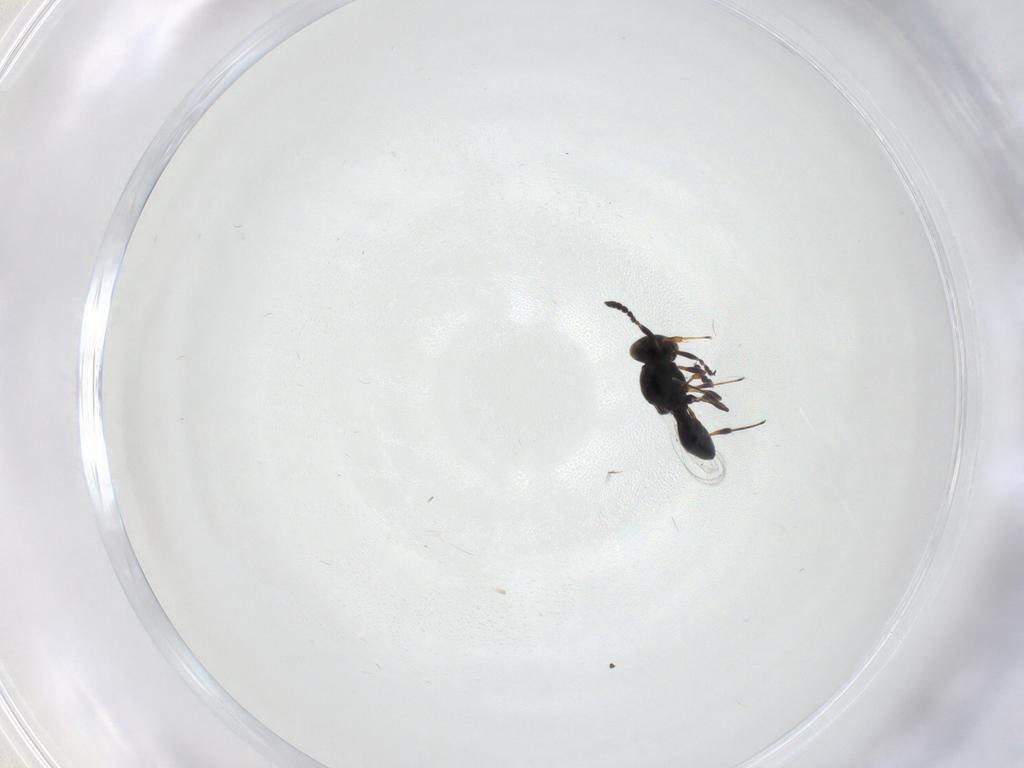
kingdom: Animalia
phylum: Arthropoda
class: Insecta
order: Hymenoptera
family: Platygastridae
